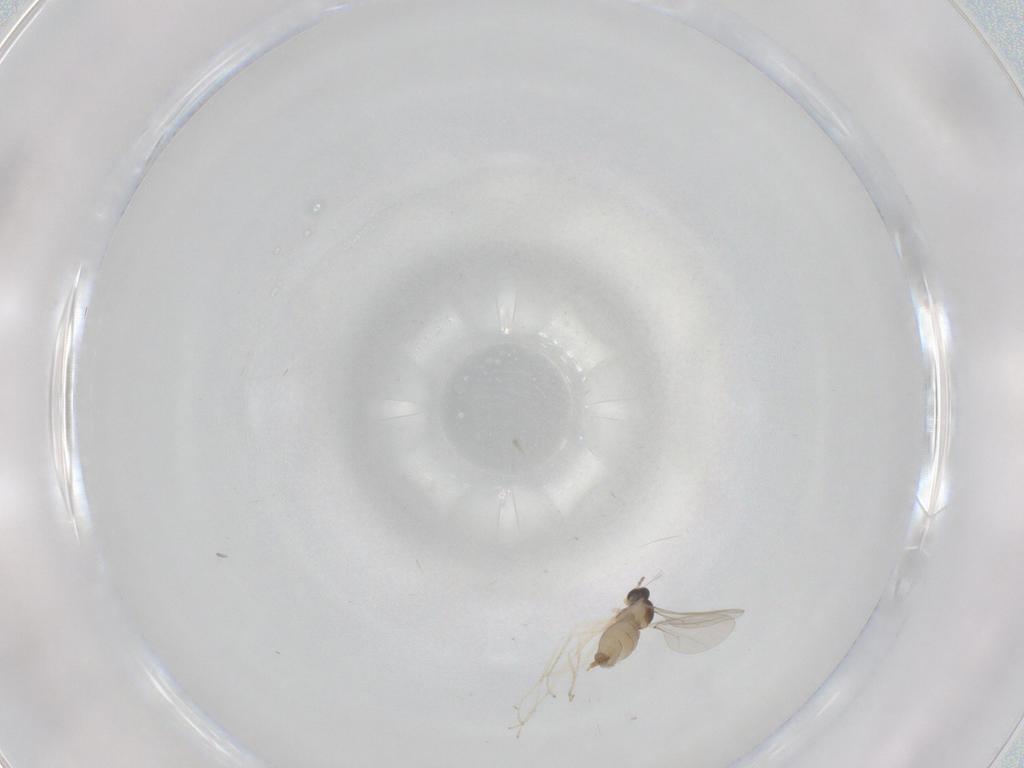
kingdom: Animalia
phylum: Arthropoda
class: Insecta
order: Diptera
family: Cecidomyiidae
